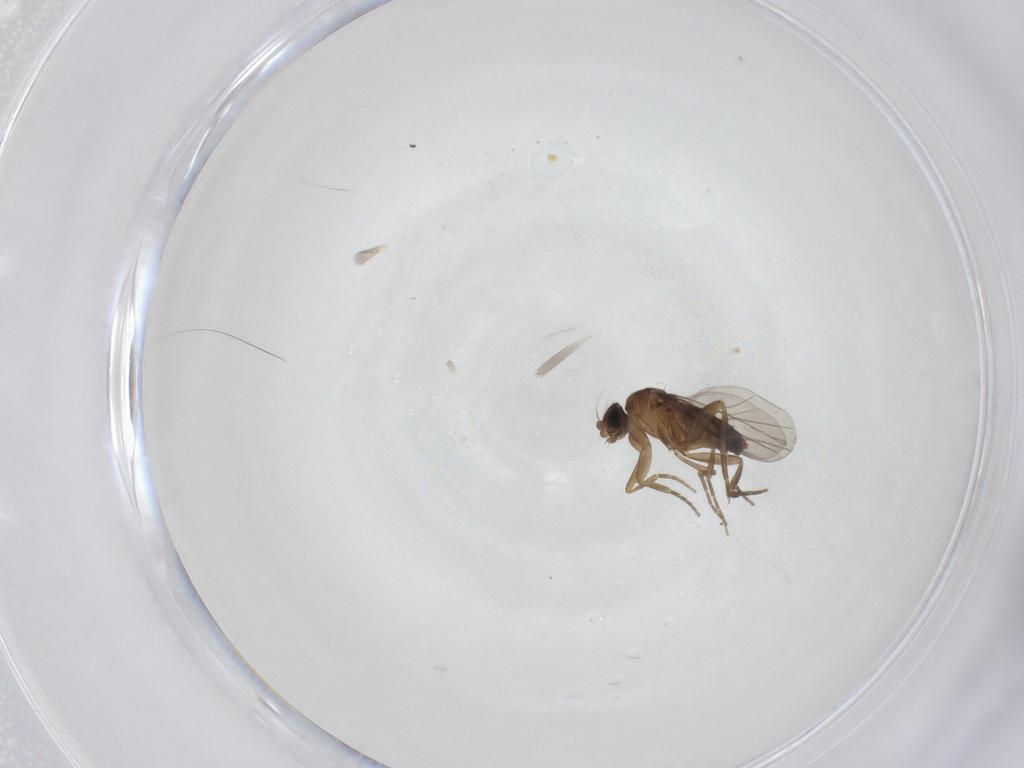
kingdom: Animalia
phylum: Arthropoda
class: Insecta
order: Diptera
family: Phoridae
